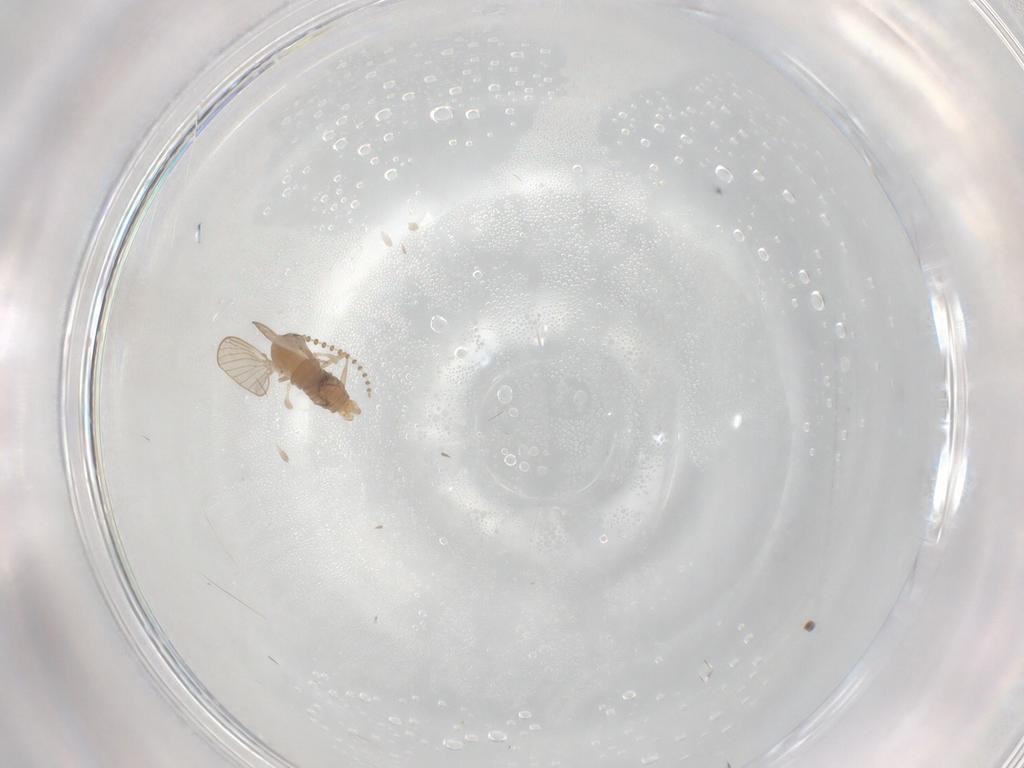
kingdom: Animalia
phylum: Arthropoda
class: Insecta
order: Diptera
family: Psychodidae
